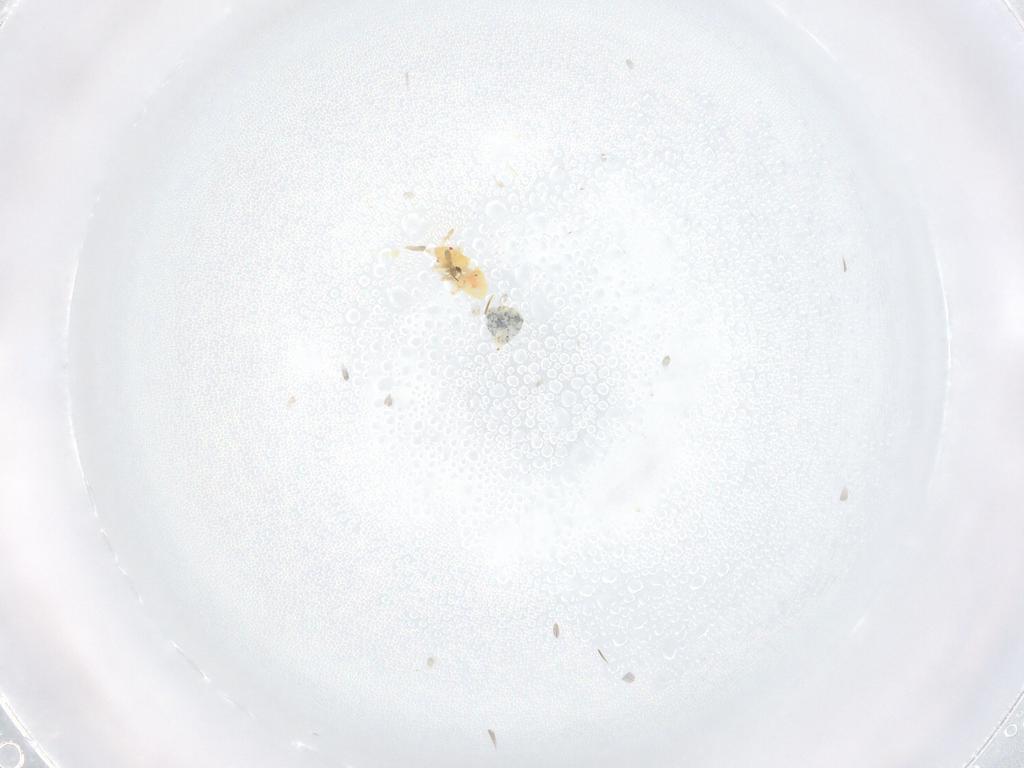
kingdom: Animalia
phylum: Arthropoda
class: Insecta
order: Hemiptera
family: Anthocoridae
